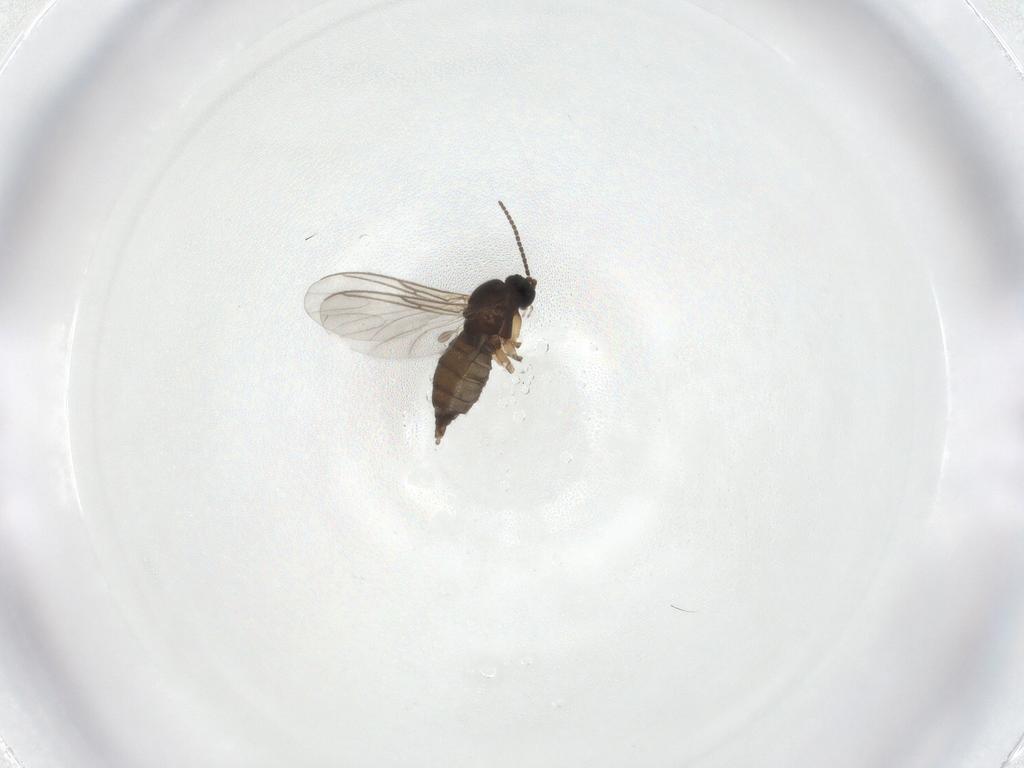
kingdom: Animalia
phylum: Arthropoda
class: Insecta
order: Diptera
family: Sciaridae
